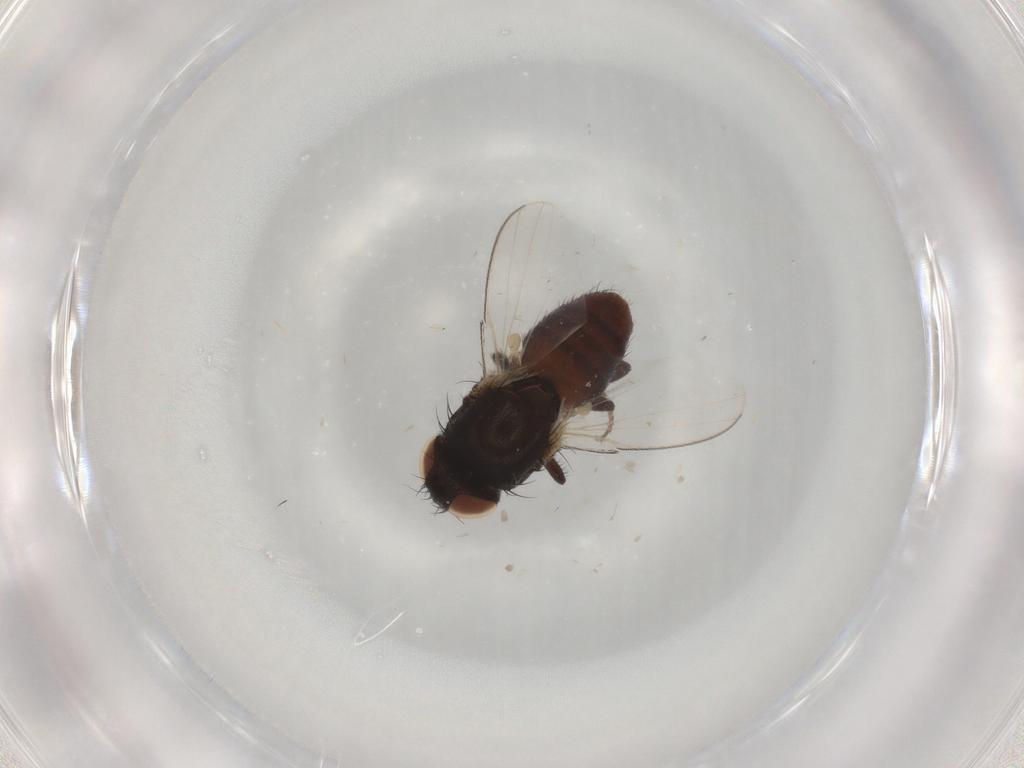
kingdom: Animalia
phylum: Arthropoda
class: Insecta
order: Diptera
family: Milichiidae
